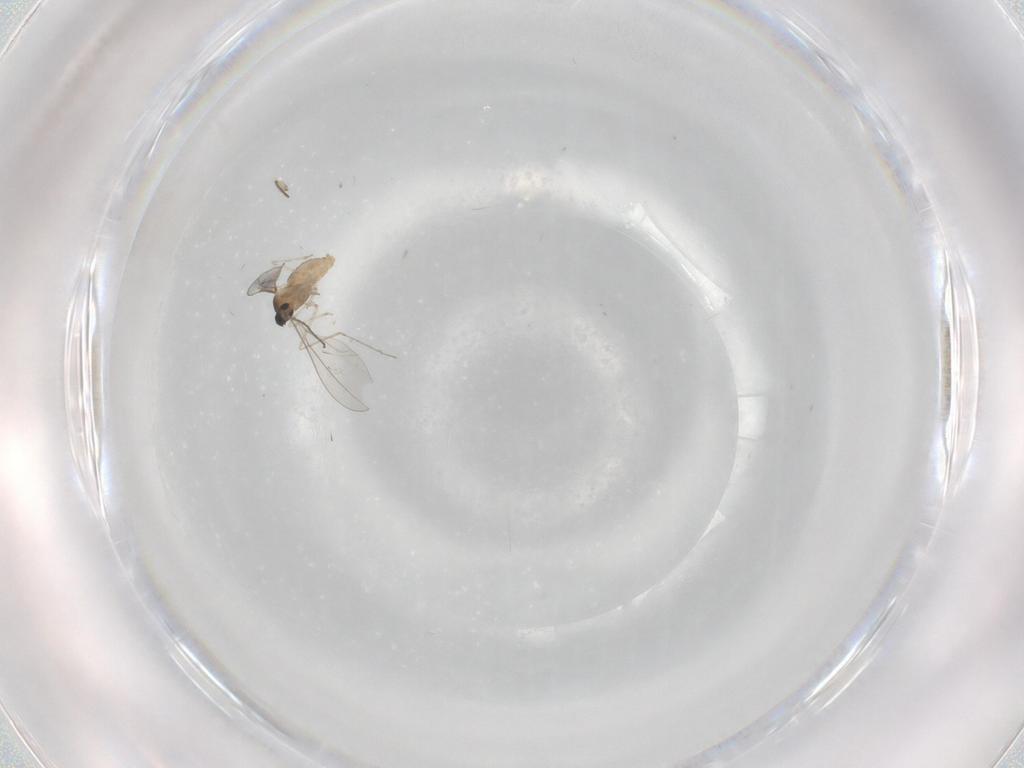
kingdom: Animalia
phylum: Arthropoda
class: Insecta
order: Diptera
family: Cecidomyiidae
